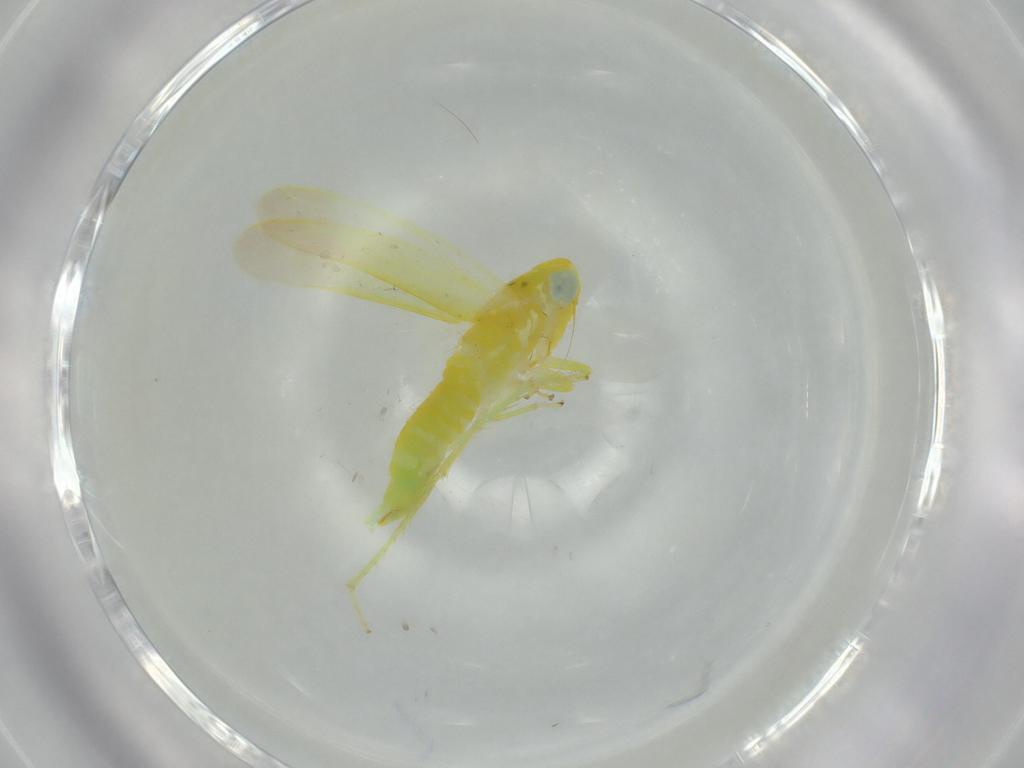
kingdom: Animalia
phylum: Arthropoda
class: Insecta
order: Hemiptera
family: Cicadellidae
